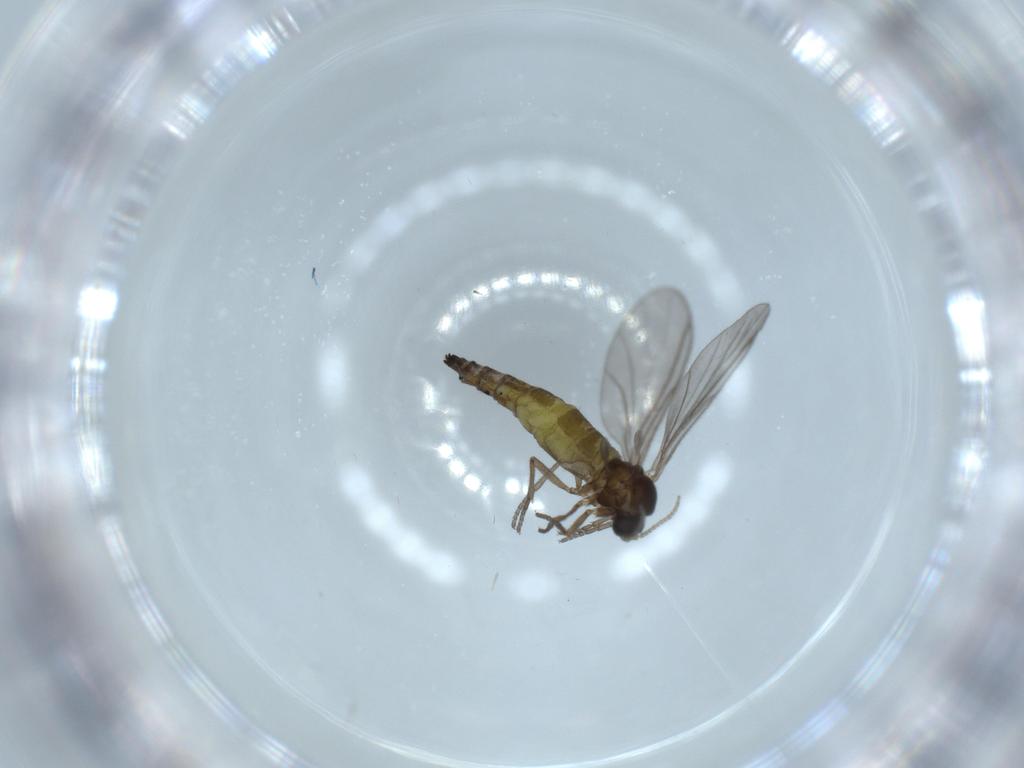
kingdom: Animalia
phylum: Arthropoda
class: Insecta
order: Diptera
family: Sciaridae
